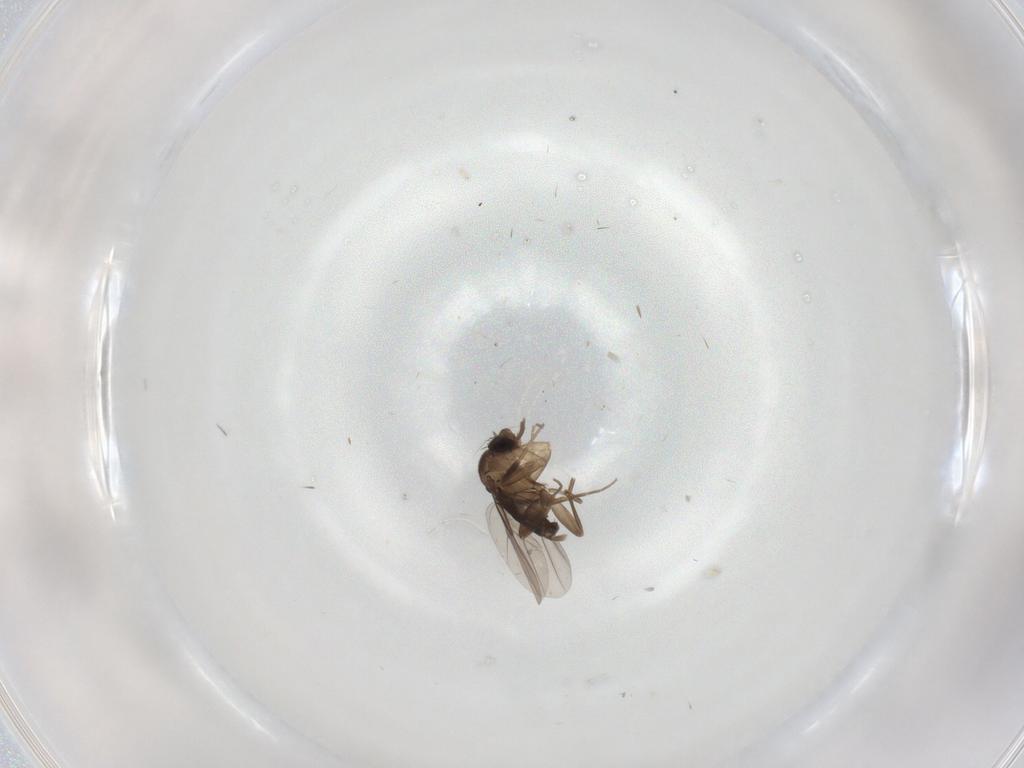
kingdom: Animalia
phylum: Arthropoda
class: Insecta
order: Diptera
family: Phoridae
